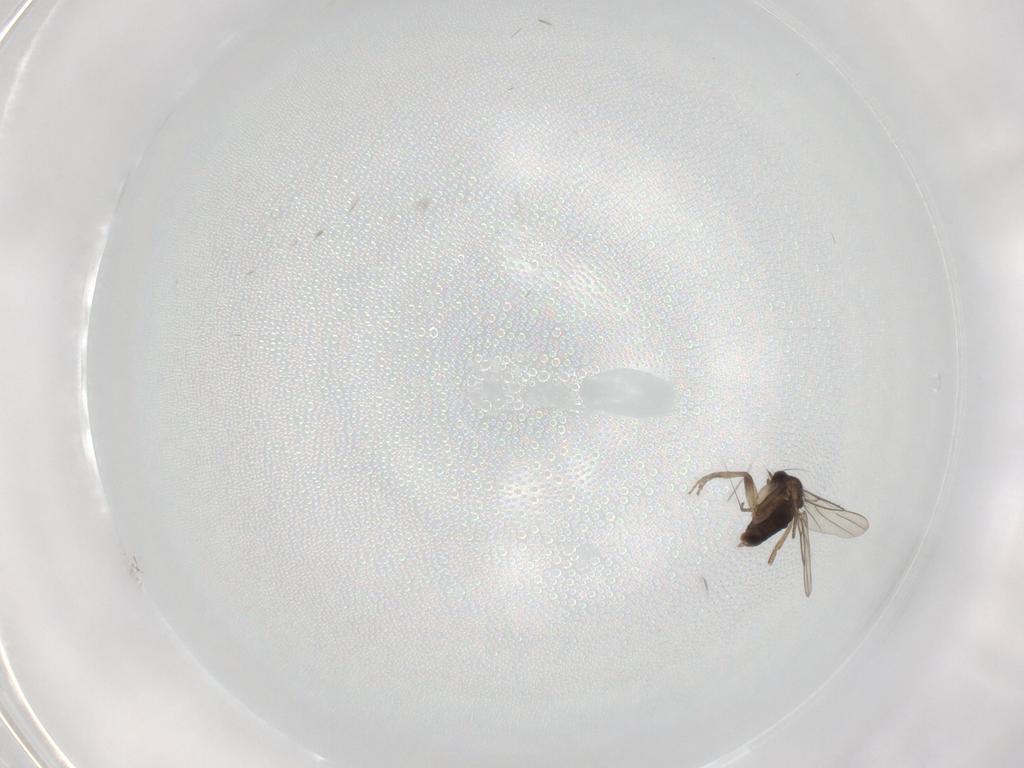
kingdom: Animalia
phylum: Arthropoda
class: Insecta
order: Diptera
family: Phoridae
